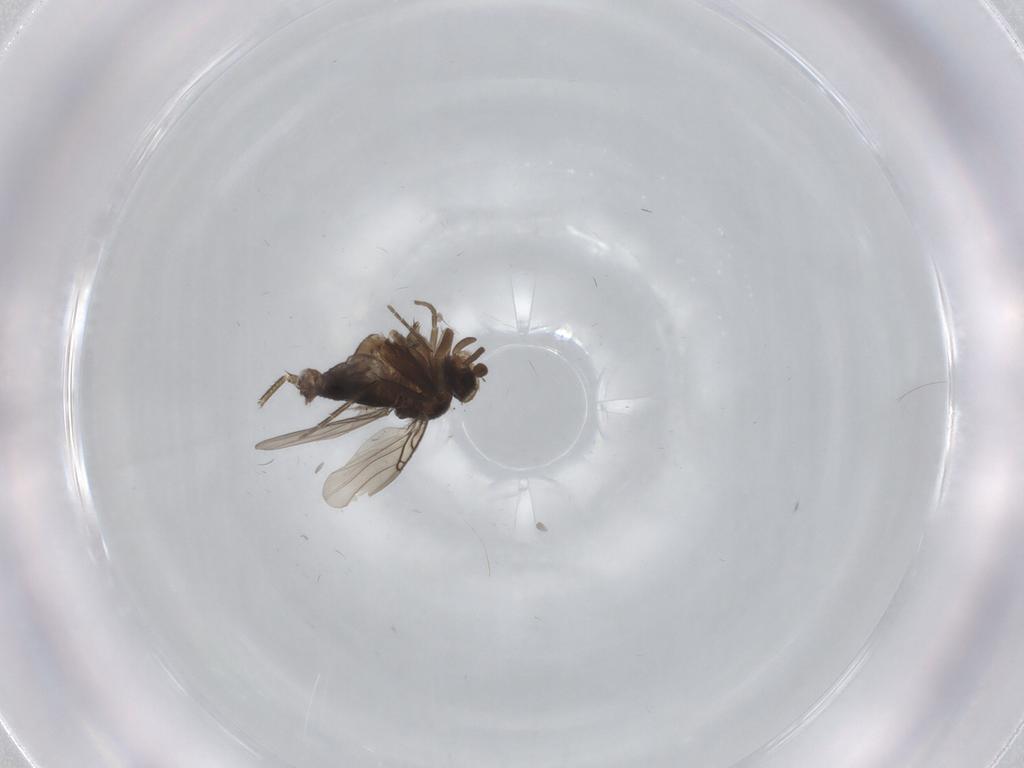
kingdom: Animalia
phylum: Arthropoda
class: Insecta
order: Diptera
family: Phoridae
